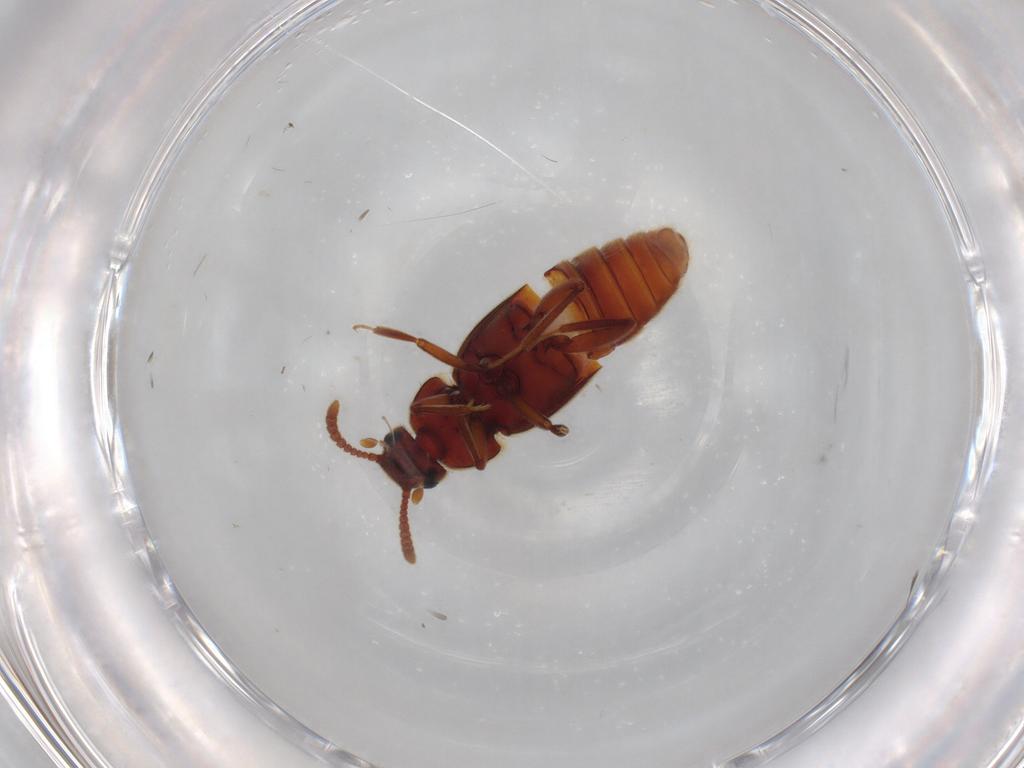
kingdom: Animalia
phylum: Arthropoda
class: Insecta
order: Coleoptera
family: Staphylinidae
